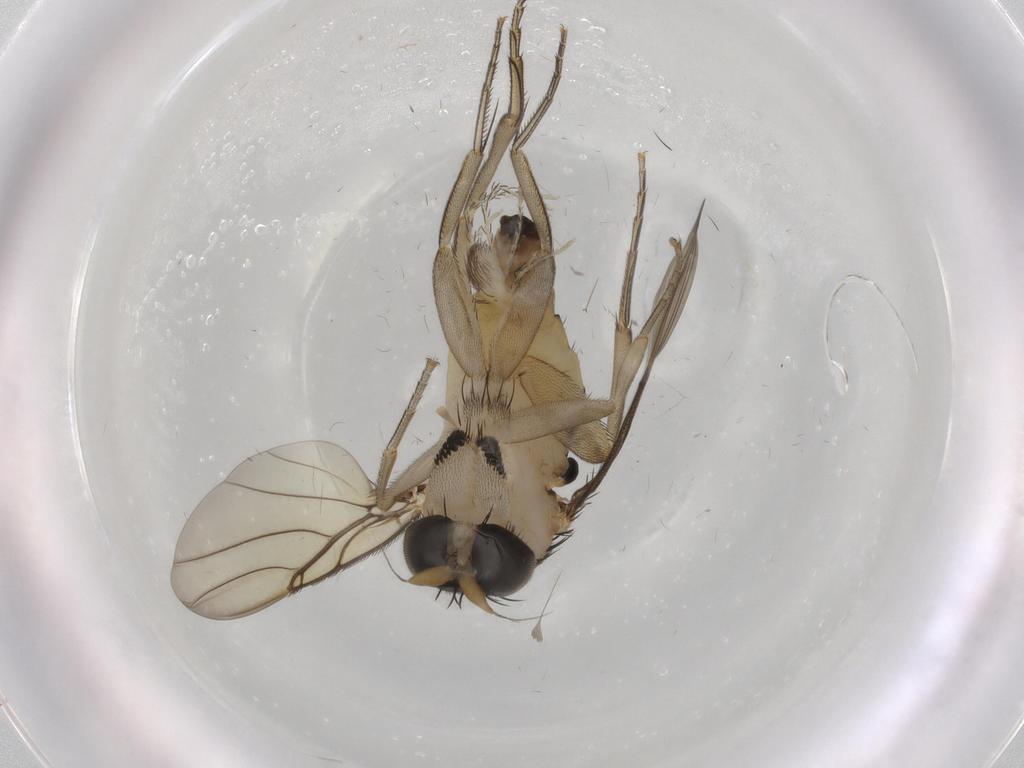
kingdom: Animalia
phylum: Arthropoda
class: Insecta
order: Diptera
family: Phoridae
